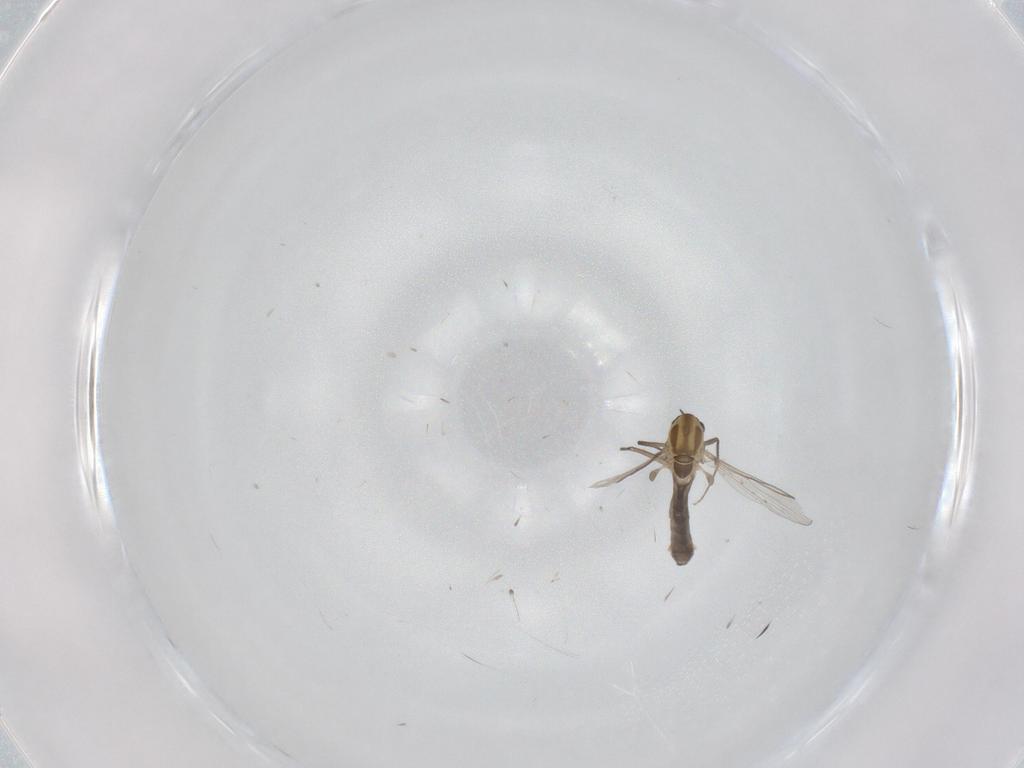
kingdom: Animalia
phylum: Arthropoda
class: Insecta
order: Diptera
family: Chironomidae
